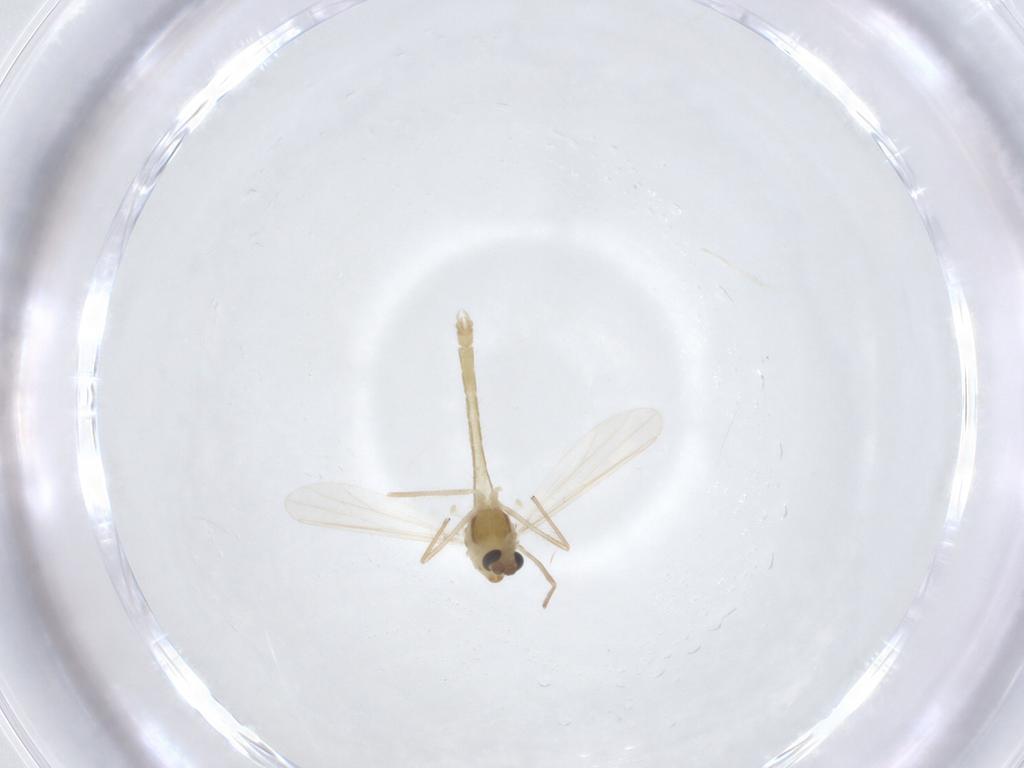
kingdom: Animalia
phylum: Arthropoda
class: Insecta
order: Diptera
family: Chironomidae
